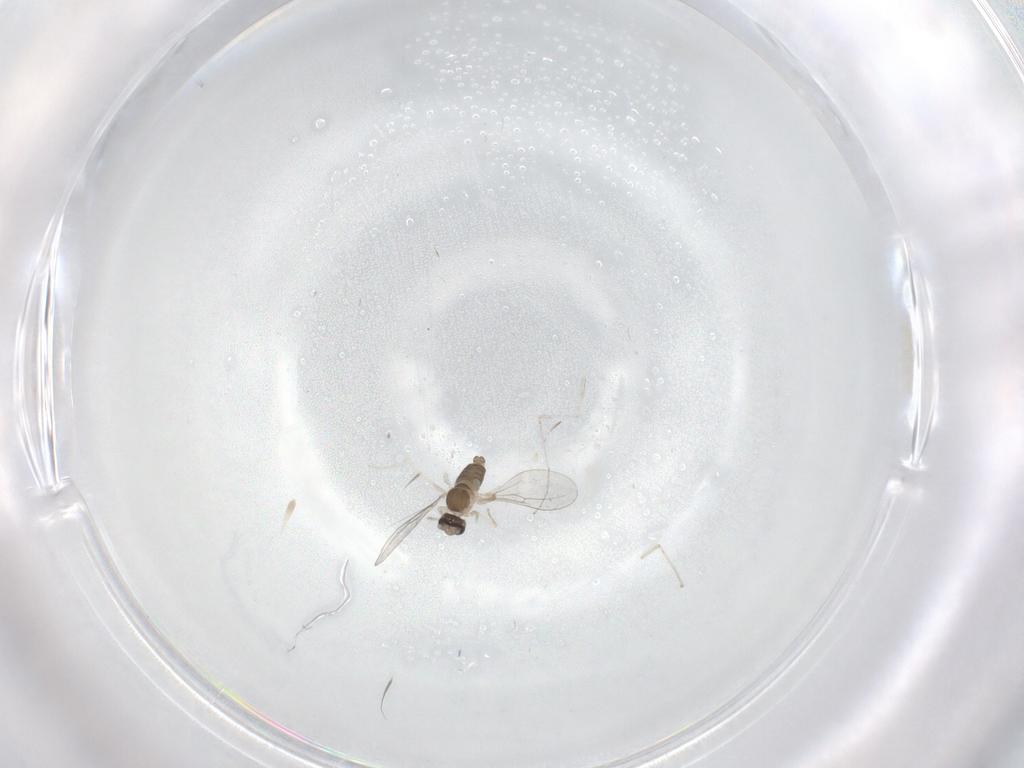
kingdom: Animalia
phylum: Arthropoda
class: Insecta
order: Diptera
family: Cecidomyiidae
